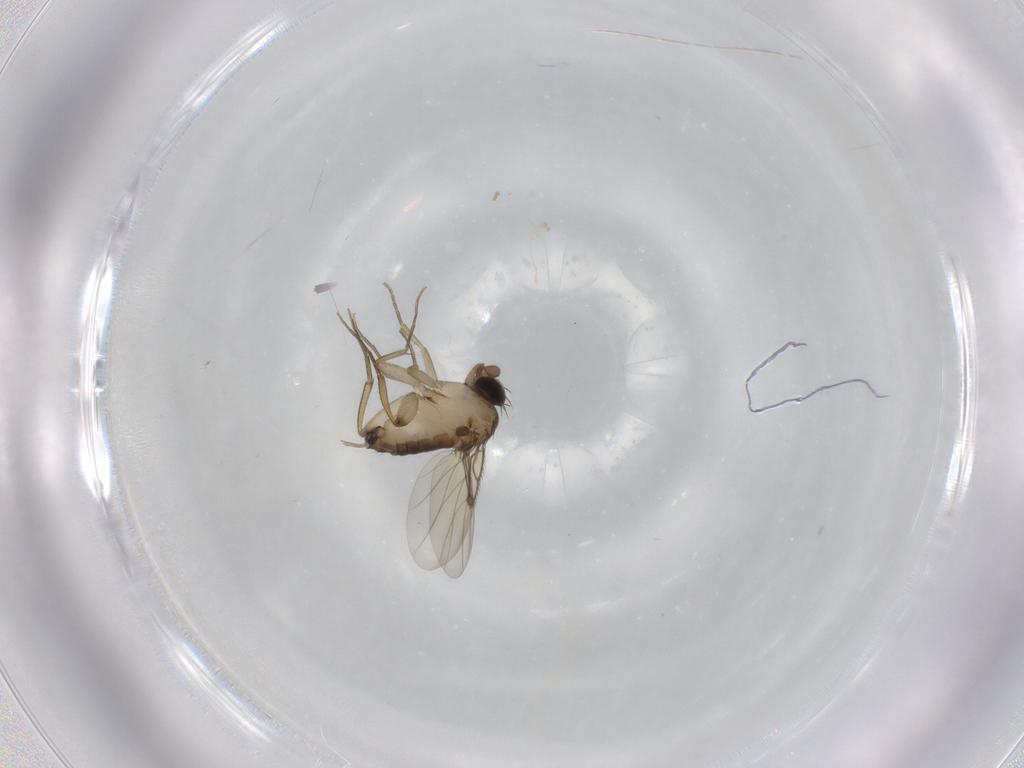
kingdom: Animalia
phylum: Arthropoda
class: Insecta
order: Diptera
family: Phoridae
